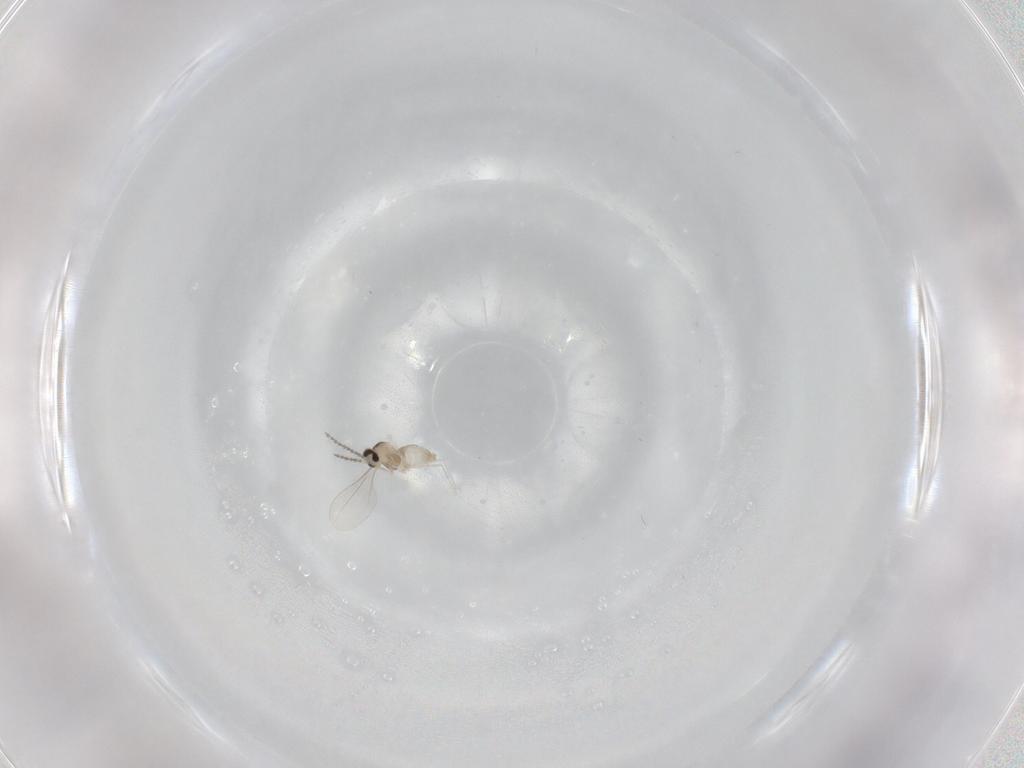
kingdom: Animalia
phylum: Arthropoda
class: Insecta
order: Diptera
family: Cecidomyiidae
